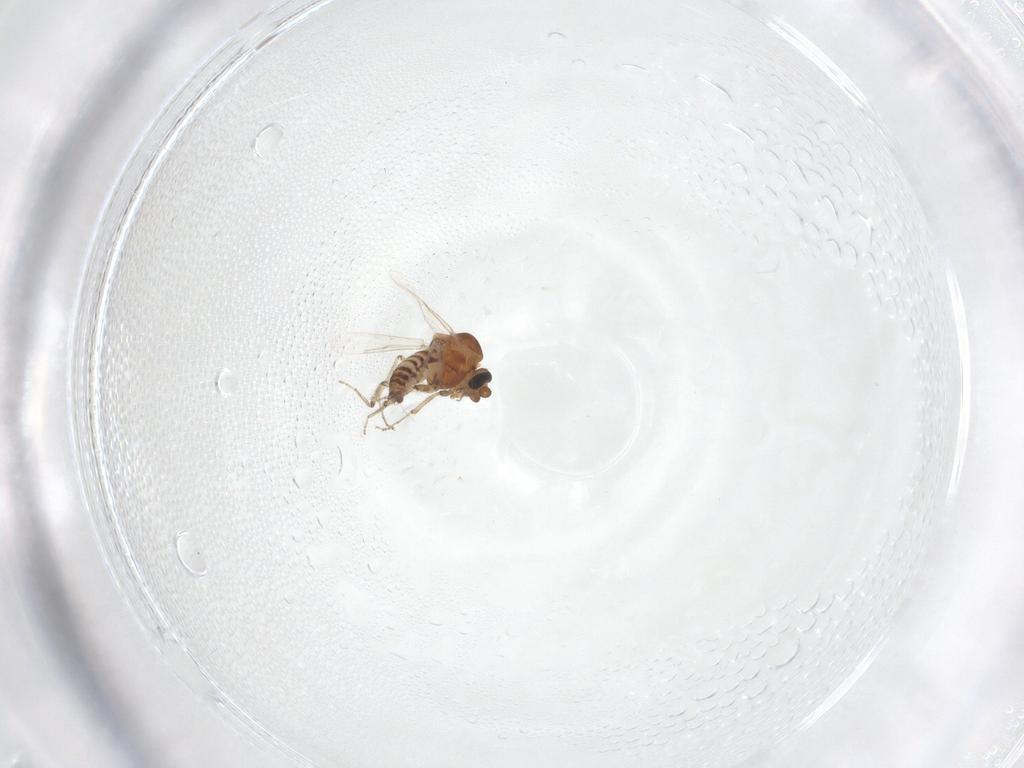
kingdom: Animalia
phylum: Arthropoda
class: Insecta
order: Diptera
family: Ceratopogonidae
